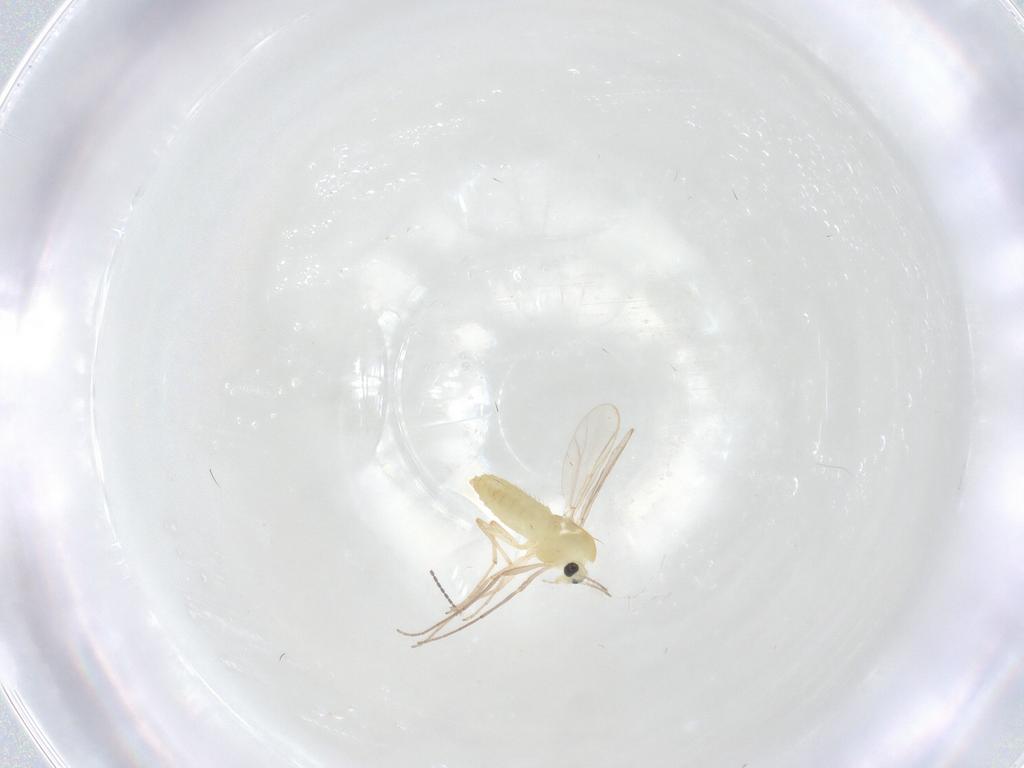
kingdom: Animalia
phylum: Arthropoda
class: Insecta
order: Diptera
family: Chironomidae
